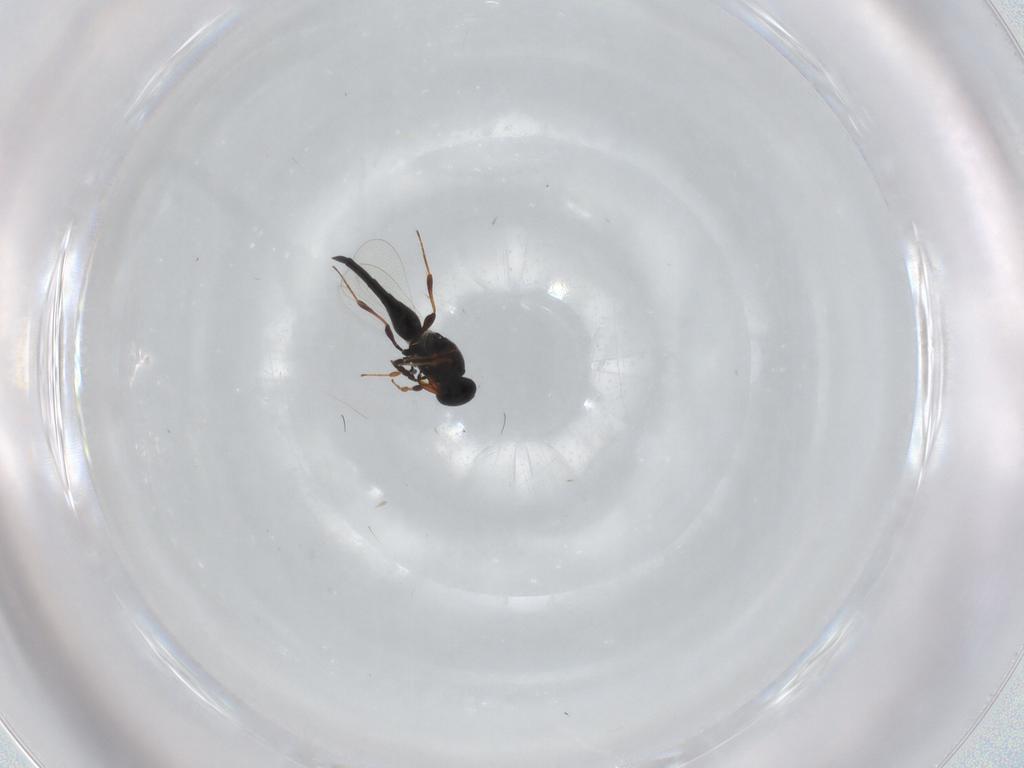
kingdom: Animalia
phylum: Arthropoda
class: Insecta
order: Hymenoptera
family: Platygastridae
